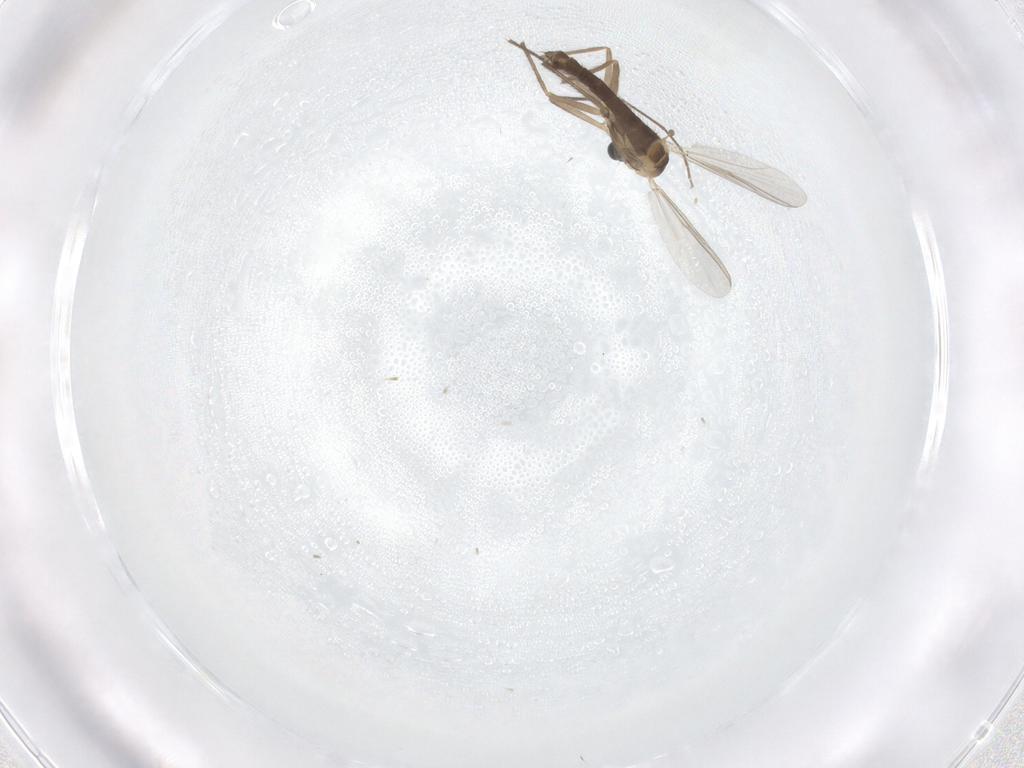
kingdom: Animalia
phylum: Arthropoda
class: Insecta
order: Diptera
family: Chironomidae
